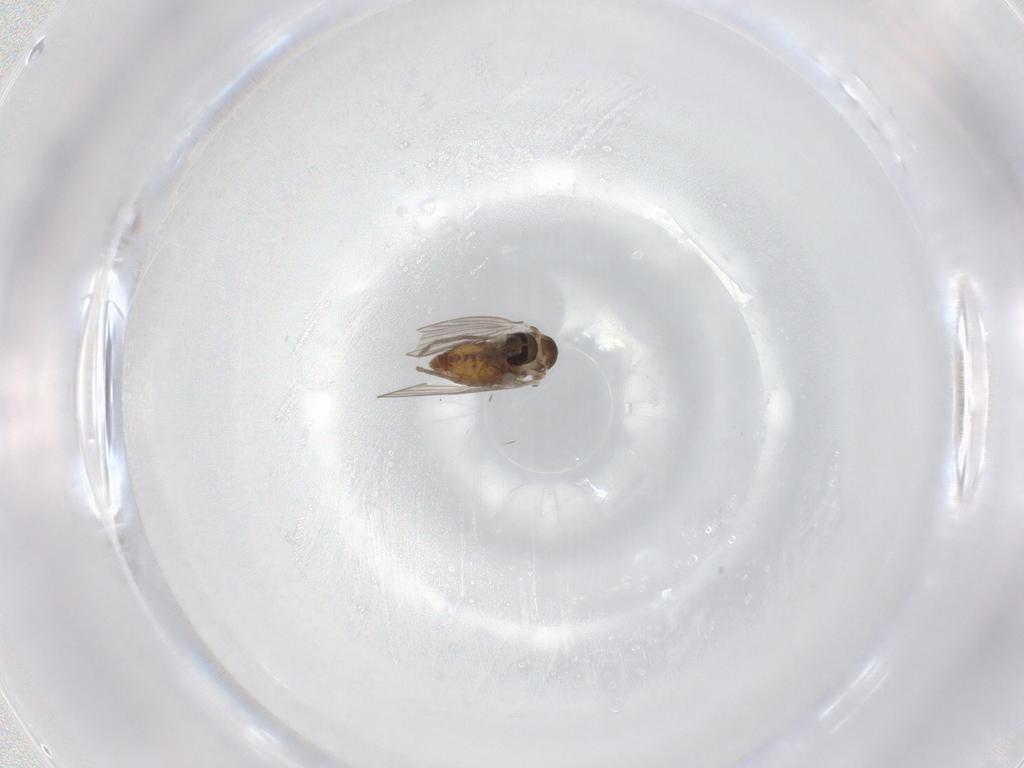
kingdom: Animalia
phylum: Arthropoda
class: Insecta
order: Diptera
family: Psychodidae
